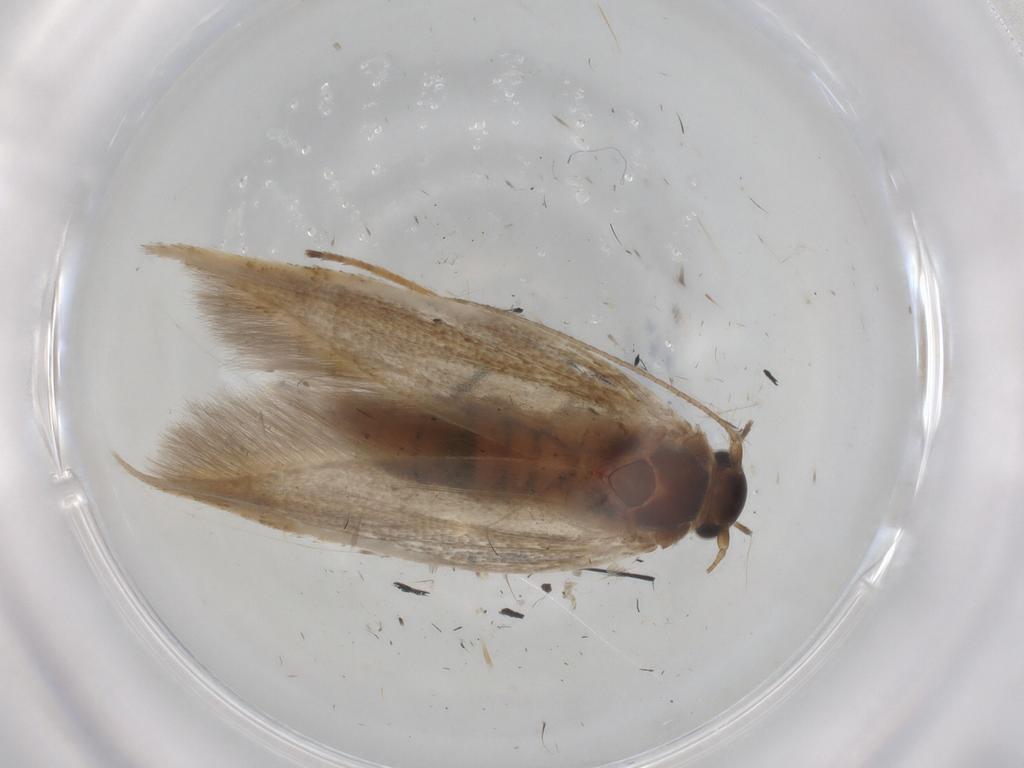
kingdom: Animalia
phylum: Arthropoda
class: Insecta
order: Lepidoptera
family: Scythrididae
